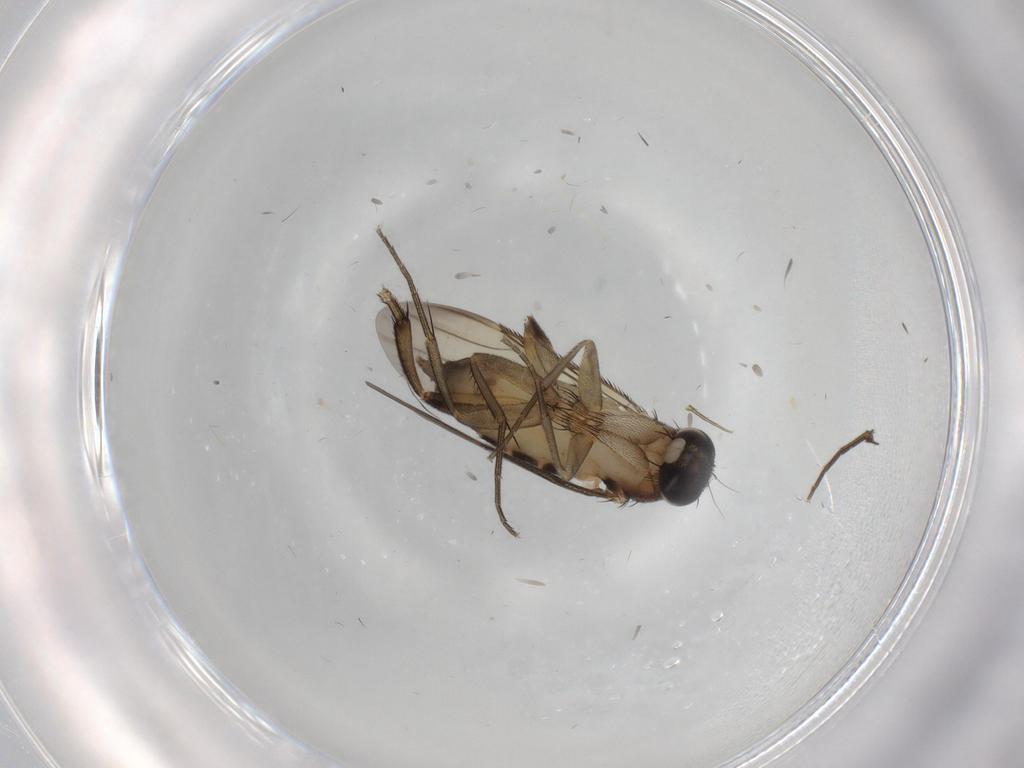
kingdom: Animalia
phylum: Arthropoda
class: Insecta
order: Diptera
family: Phoridae
